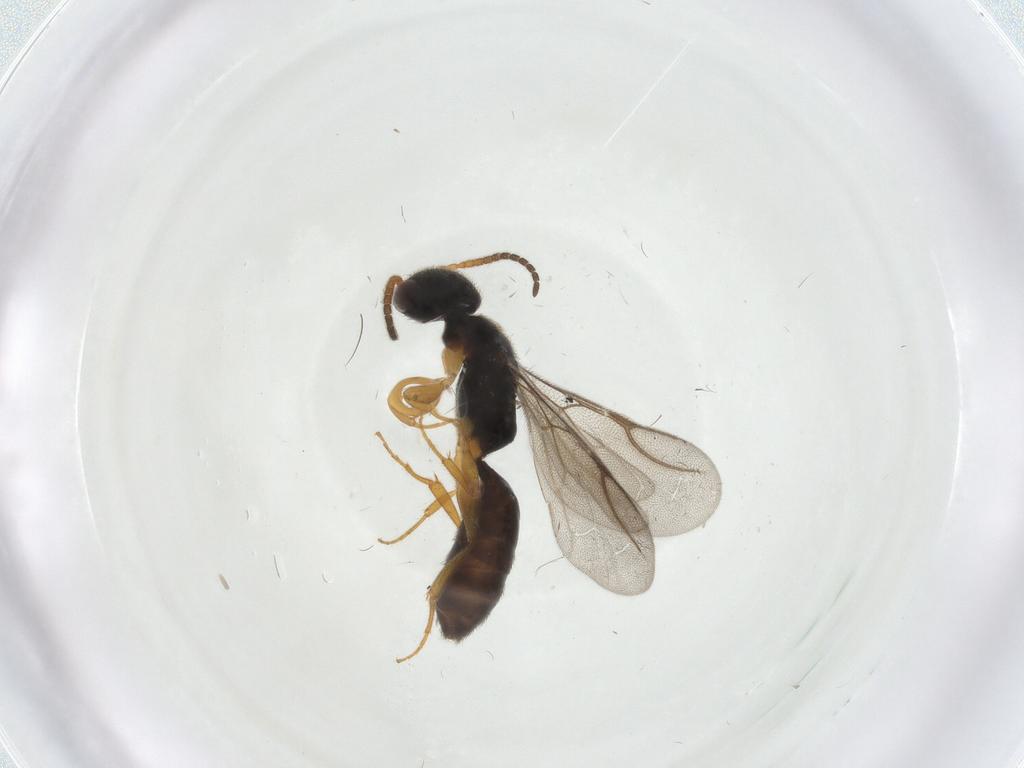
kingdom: Animalia
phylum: Arthropoda
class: Insecta
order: Hymenoptera
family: Bethylidae
